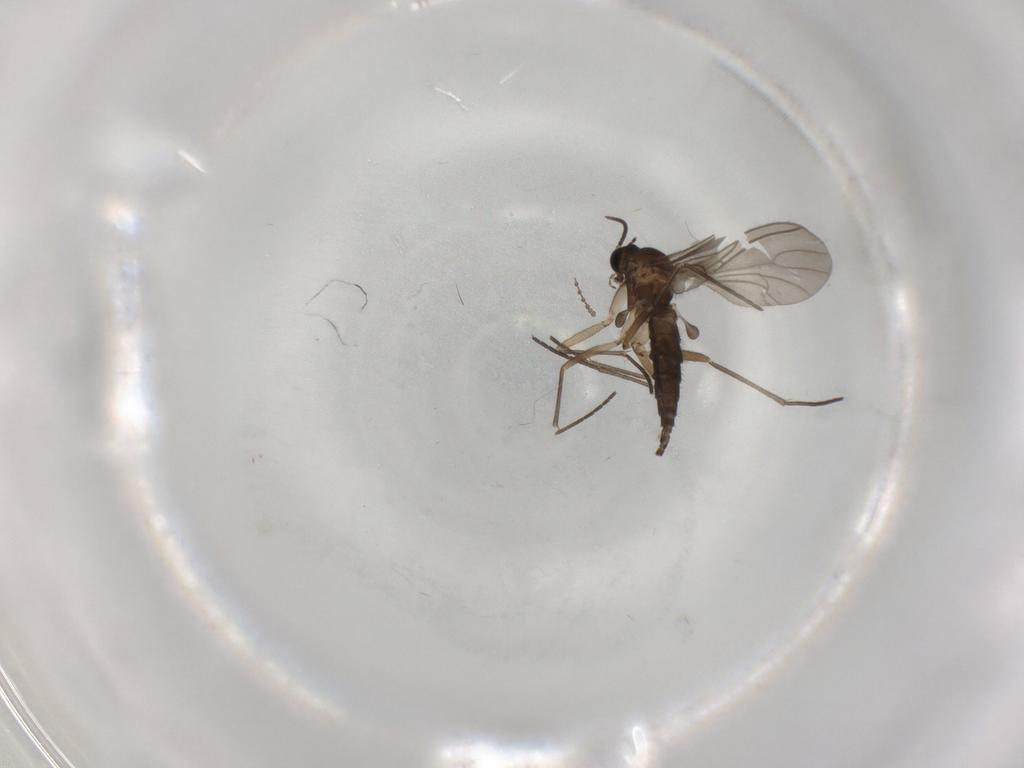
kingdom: Animalia
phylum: Arthropoda
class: Insecta
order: Diptera
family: Sciaridae
